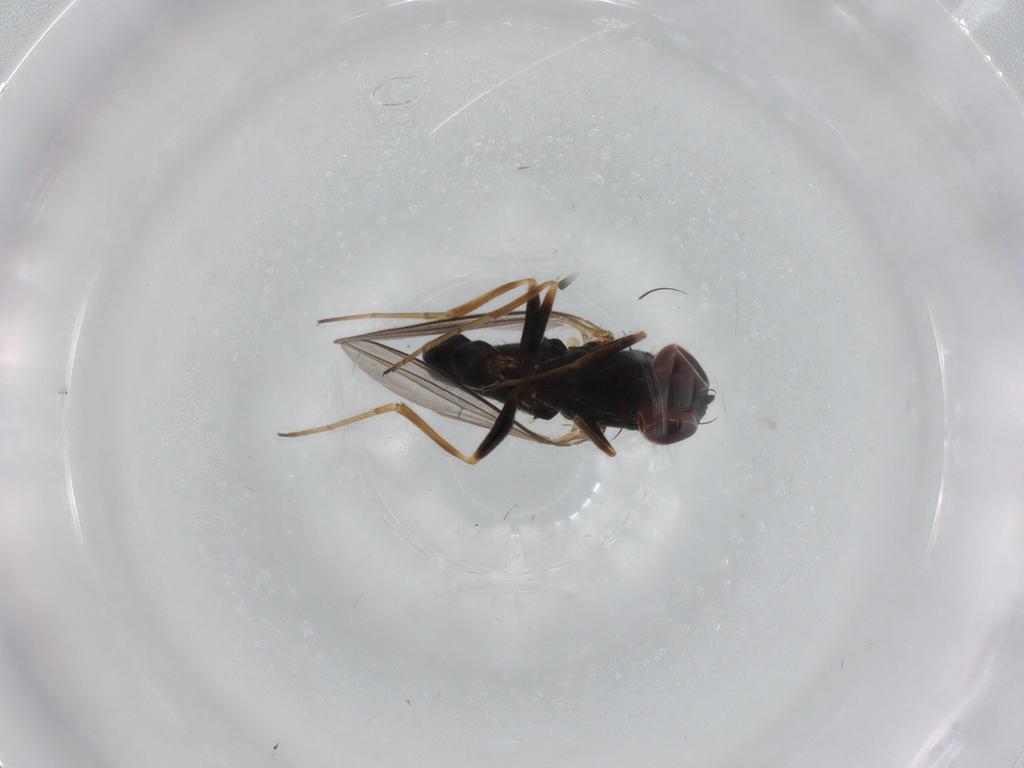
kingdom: Animalia
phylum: Arthropoda
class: Insecta
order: Diptera
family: Dolichopodidae
